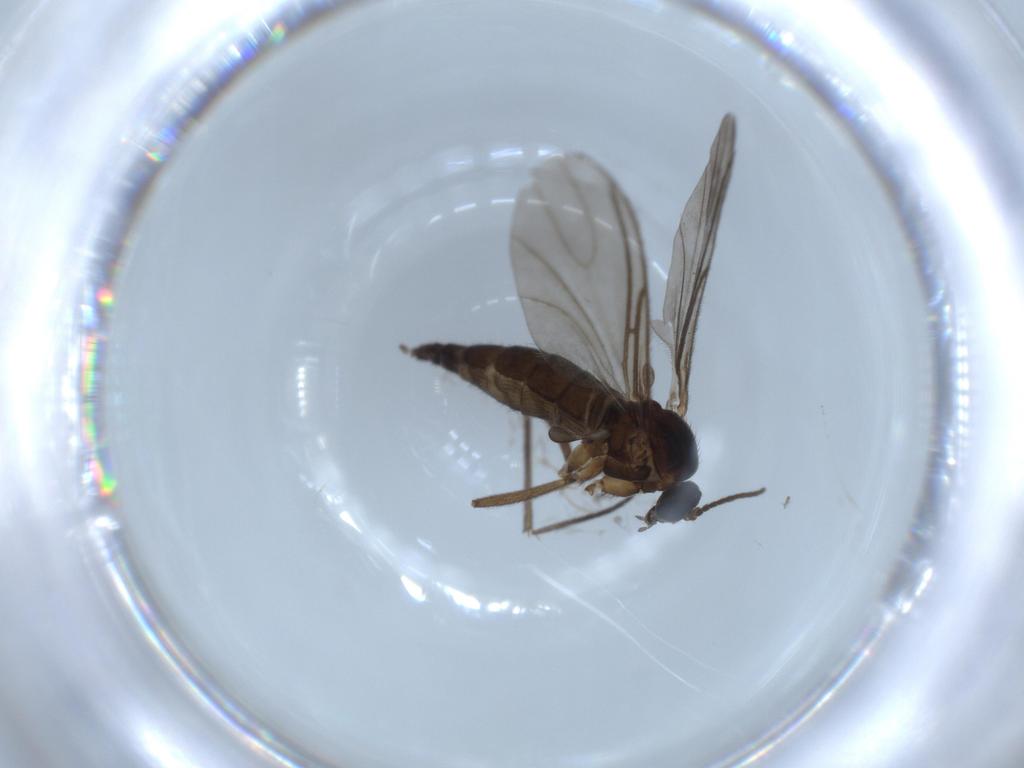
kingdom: Animalia
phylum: Arthropoda
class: Insecta
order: Diptera
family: Sciaridae
